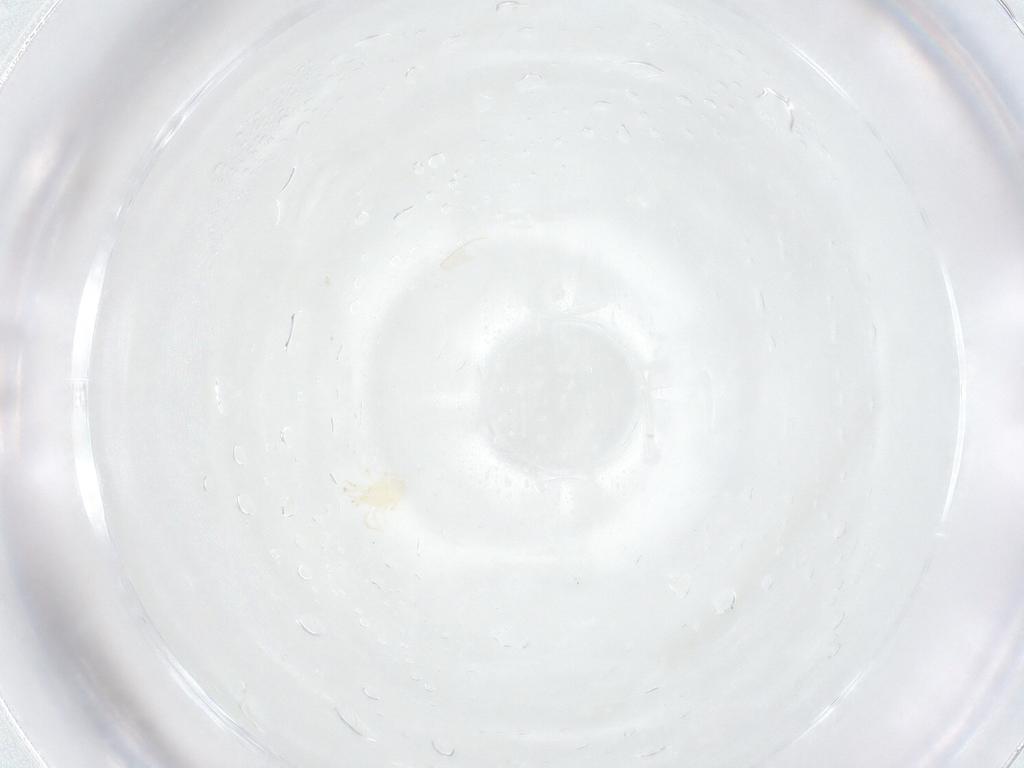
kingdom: Animalia
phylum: Arthropoda
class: Arachnida
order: Mesostigmata
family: Phytoseiidae
